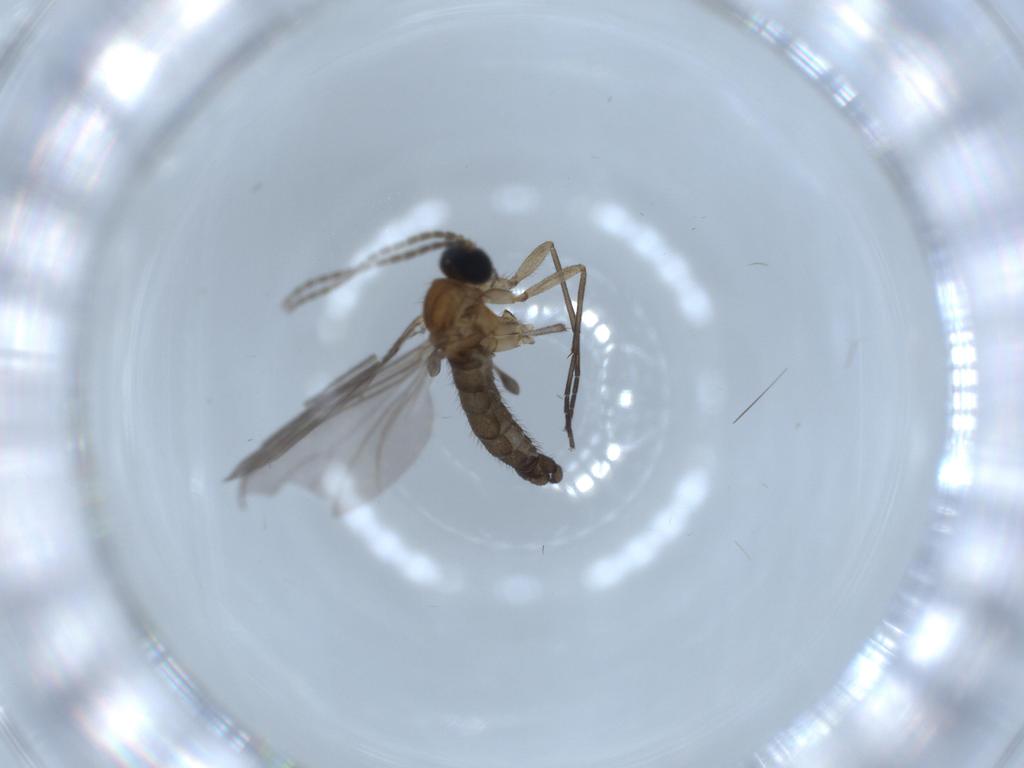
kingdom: Animalia
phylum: Arthropoda
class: Insecta
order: Diptera
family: Sciaridae
